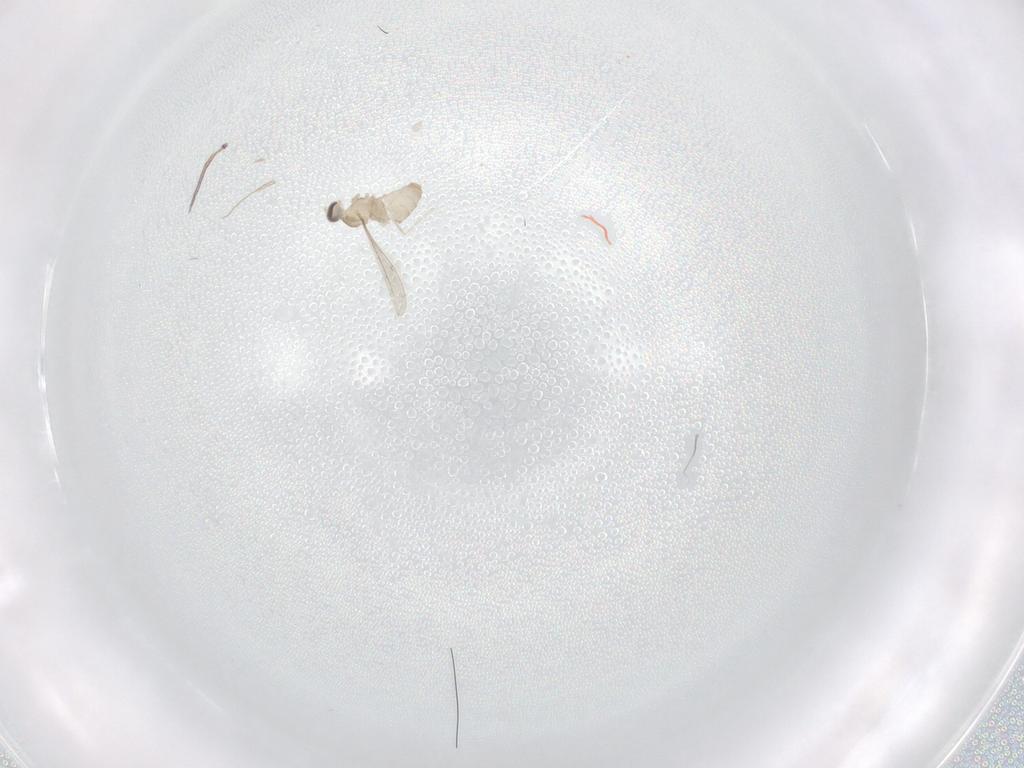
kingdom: Animalia
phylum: Arthropoda
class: Insecta
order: Diptera
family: Cecidomyiidae
